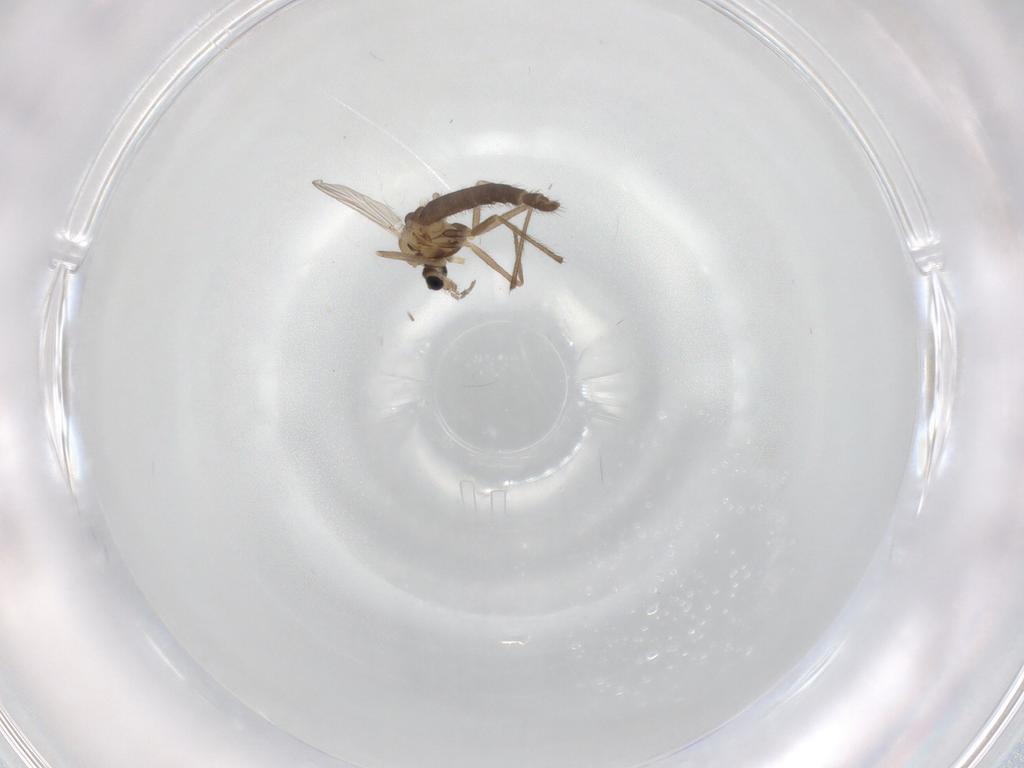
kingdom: Animalia
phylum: Arthropoda
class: Insecta
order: Diptera
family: Chironomidae
